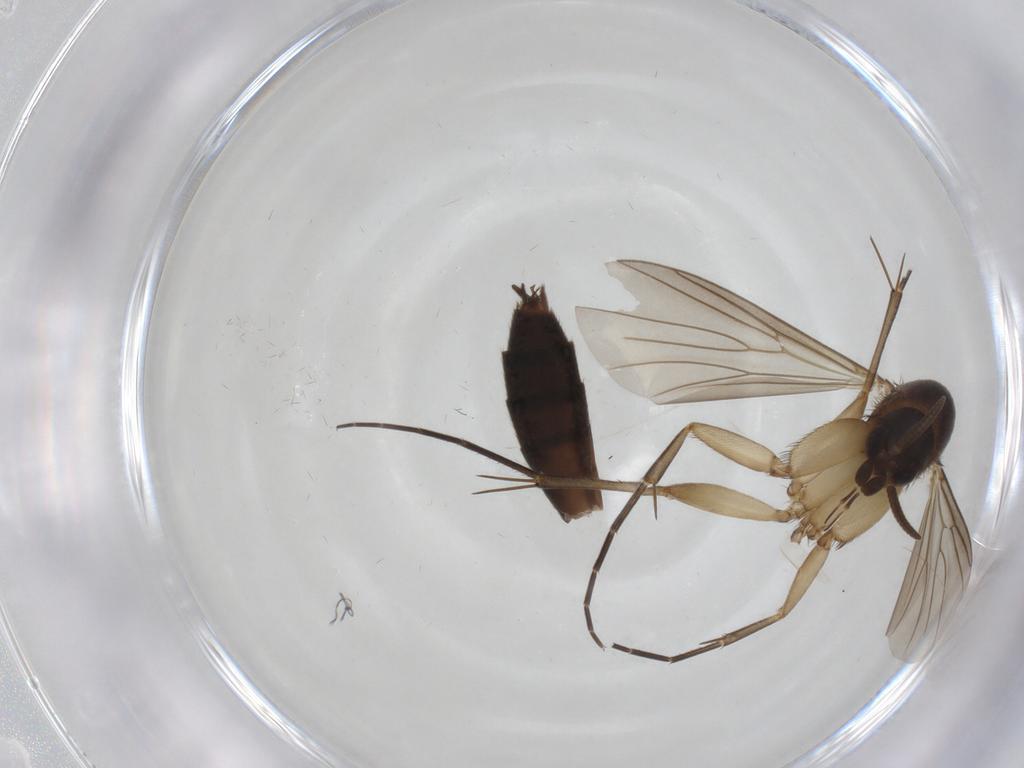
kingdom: Animalia
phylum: Arthropoda
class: Insecta
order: Diptera
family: Mycetophilidae
